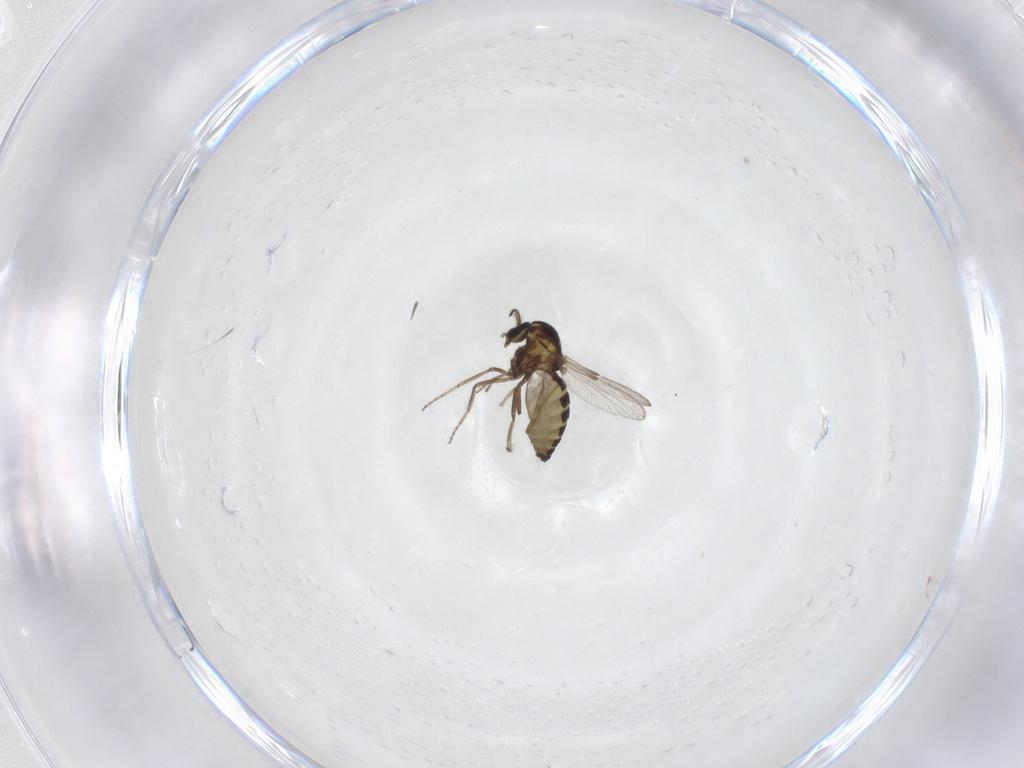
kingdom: Animalia
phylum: Arthropoda
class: Insecta
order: Diptera
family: Ceratopogonidae
